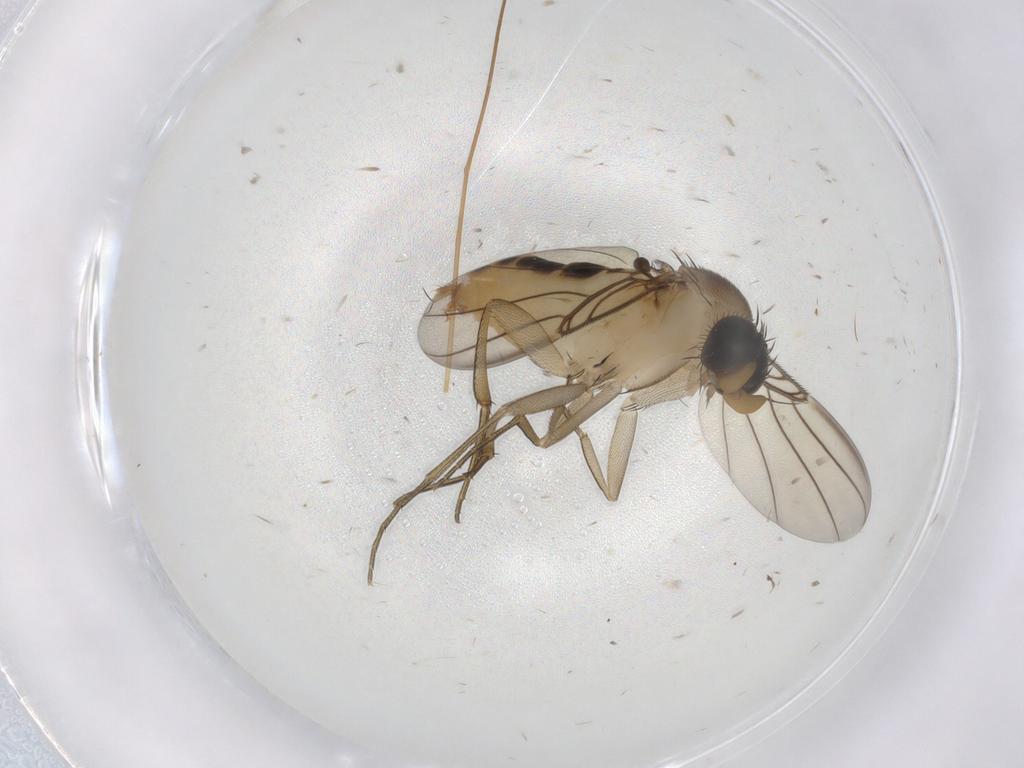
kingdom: Animalia
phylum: Arthropoda
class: Insecta
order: Diptera
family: Phoridae
